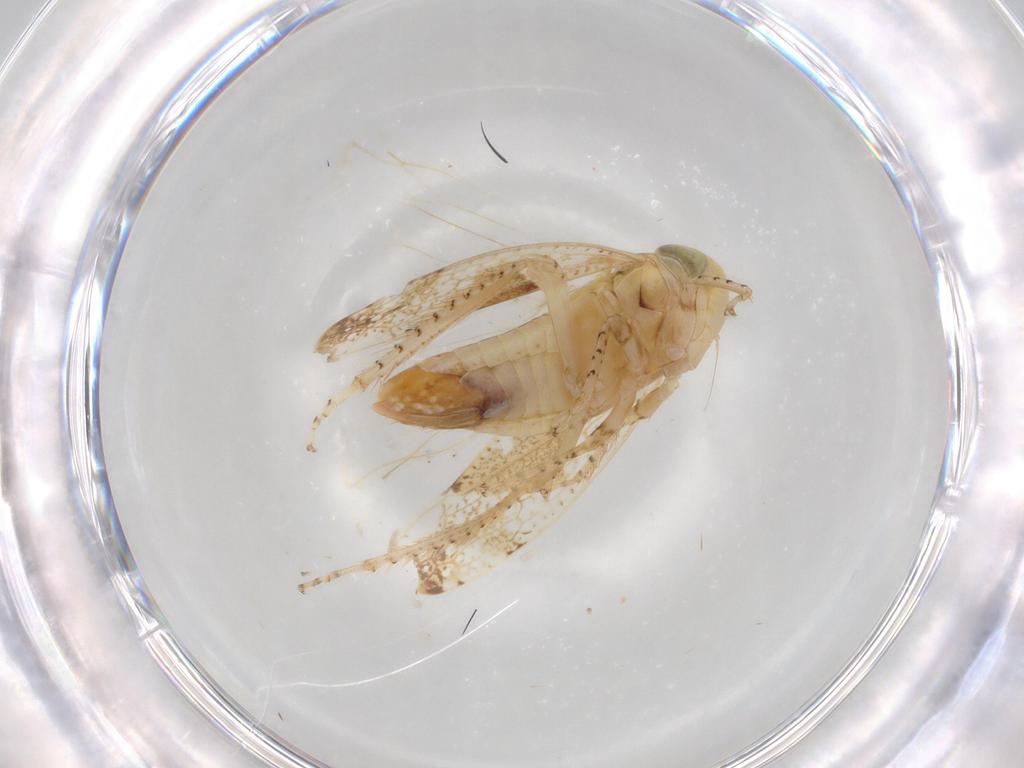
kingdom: Animalia
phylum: Arthropoda
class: Insecta
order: Hemiptera
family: Cicadellidae
